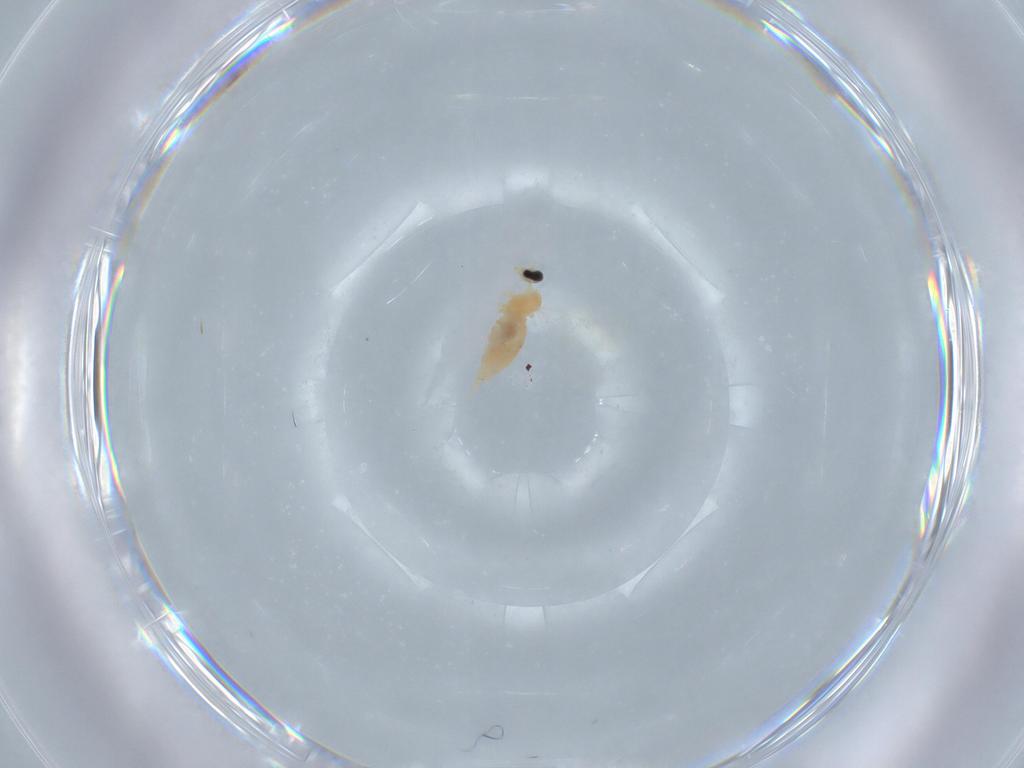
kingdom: Animalia
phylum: Arthropoda
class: Insecta
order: Diptera
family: Cecidomyiidae
